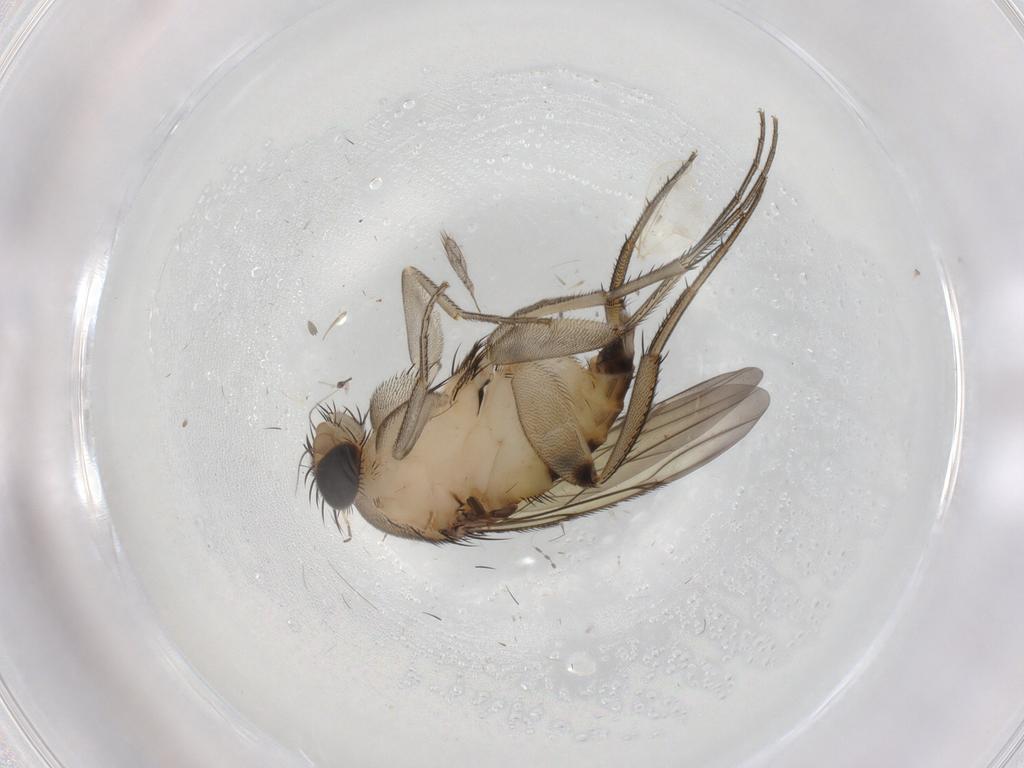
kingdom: Animalia
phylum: Arthropoda
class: Insecta
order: Diptera
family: Phoridae
